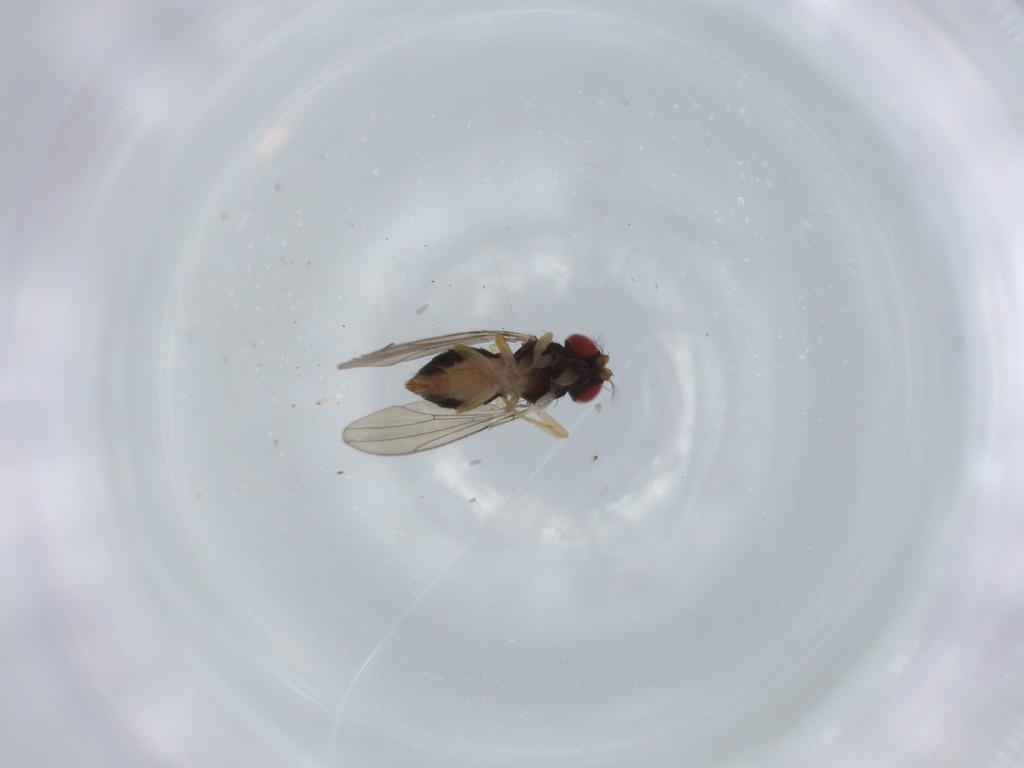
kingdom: Animalia
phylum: Arthropoda
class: Insecta
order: Diptera
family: Drosophilidae
